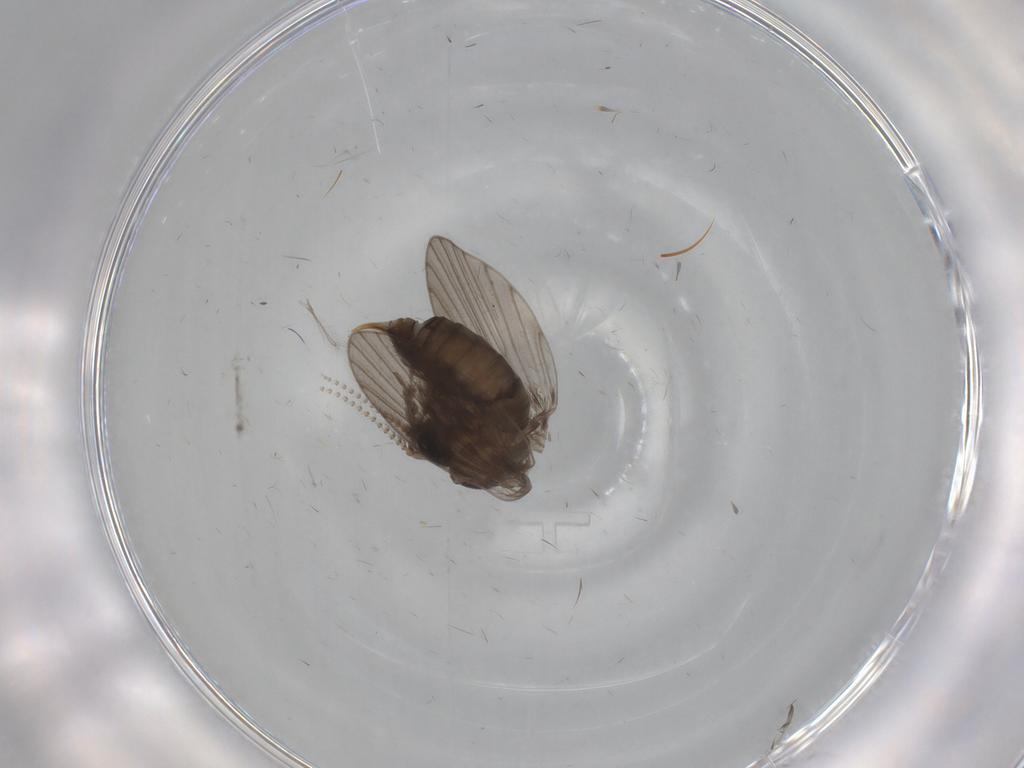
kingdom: Animalia
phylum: Arthropoda
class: Insecta
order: Diptera
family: Psychodidae
